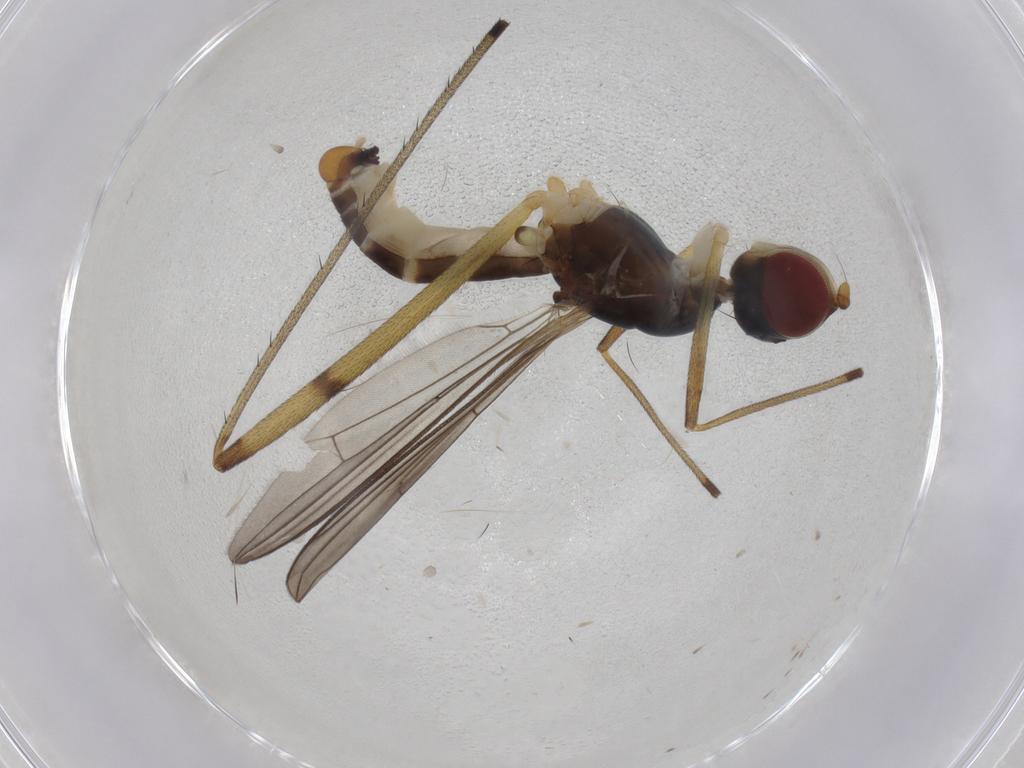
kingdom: Animalia
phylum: Arthropoda
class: Insecta
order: Diptera
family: Micropezidae
